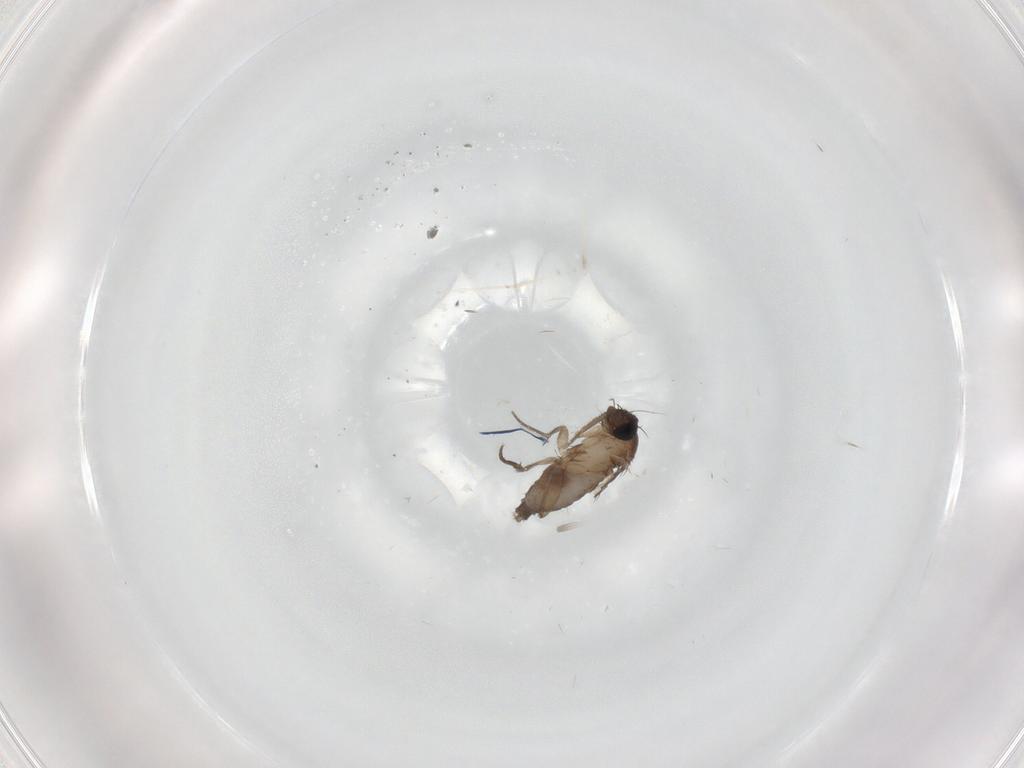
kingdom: Animalia
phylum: Arthropoda
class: Insecta
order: Diptera
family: Phoridae
